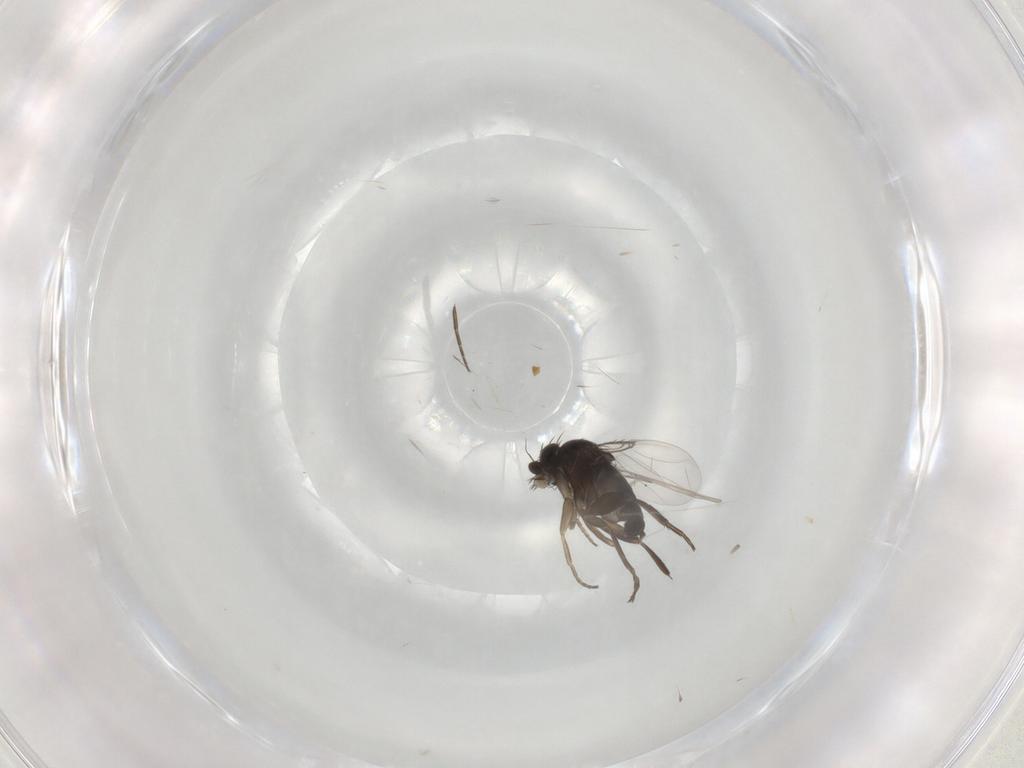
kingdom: Animalia
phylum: Arthropoda
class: Insecta
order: Diptera
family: Phoridae
